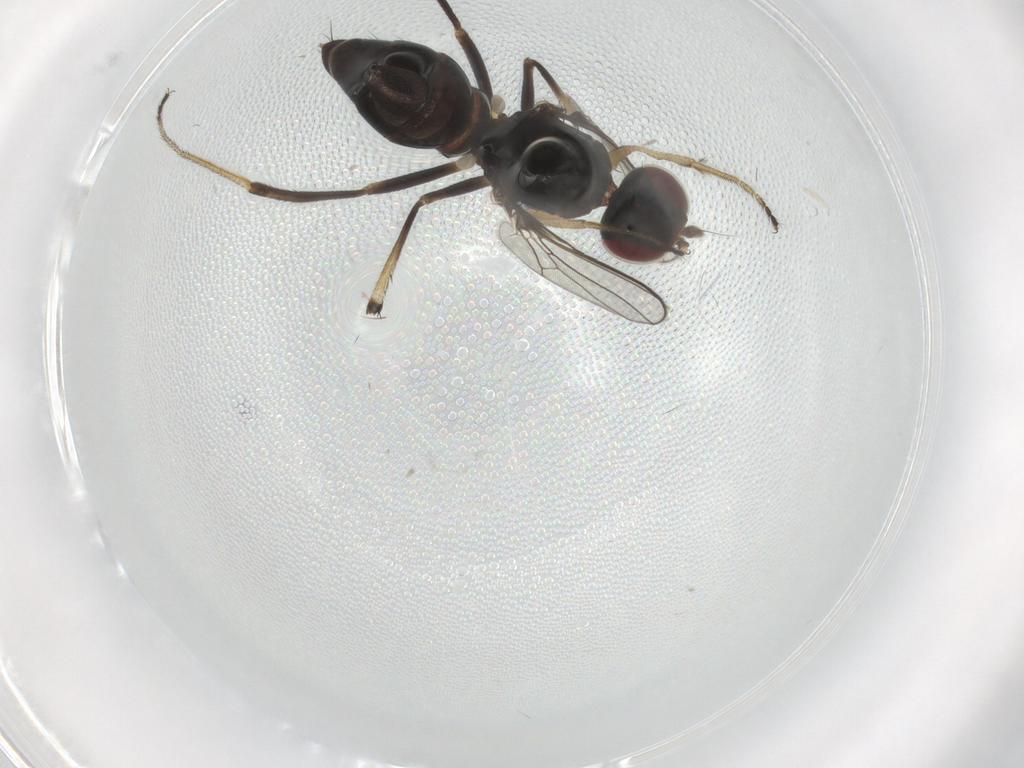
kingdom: Animalia
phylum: Arthropoda
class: Insecta
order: Diptera
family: Sepsidae
